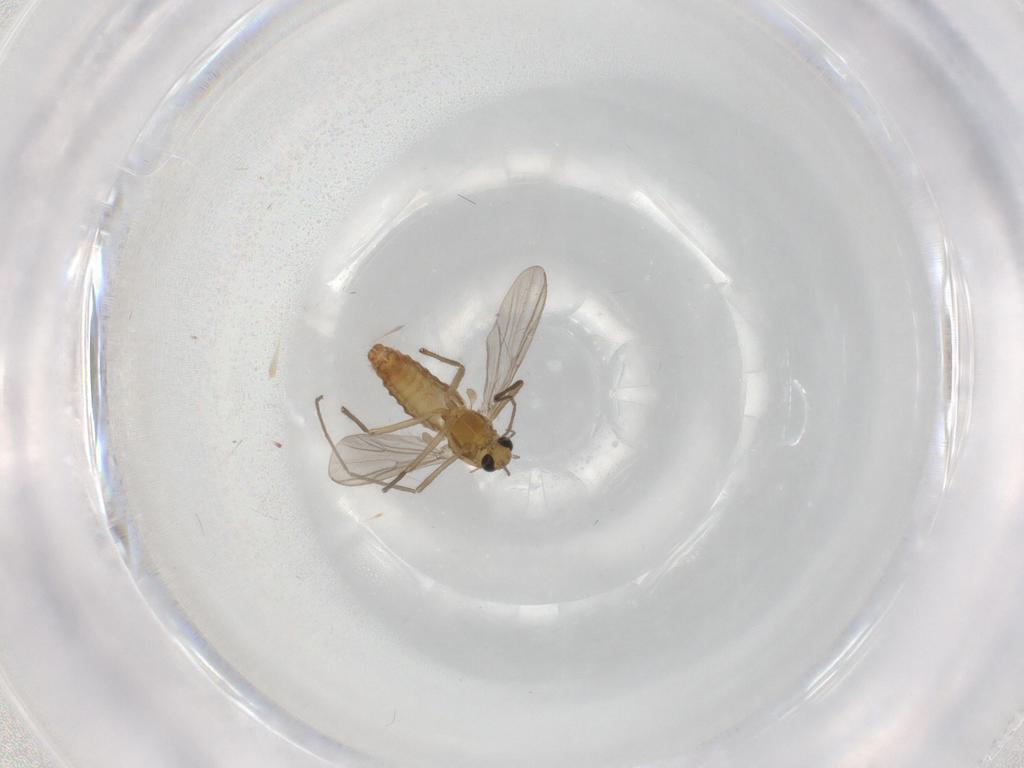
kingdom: Animalia
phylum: Arthropoda
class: Insecta
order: Diptera
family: Chironomidae
